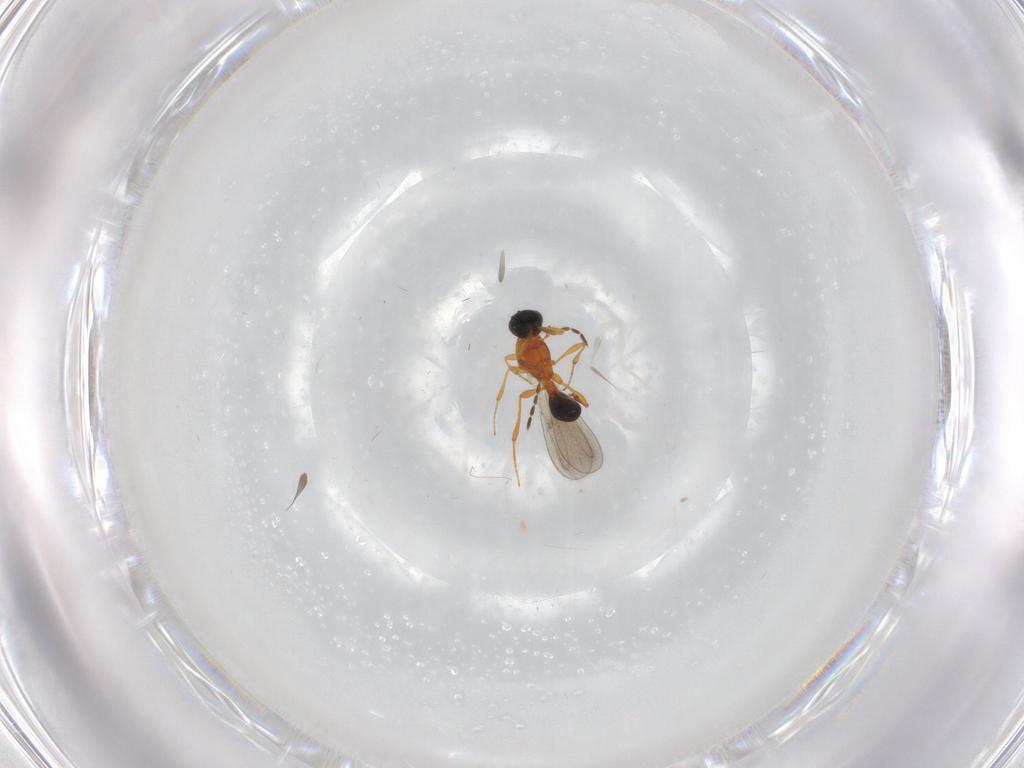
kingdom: Animalia
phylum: Arthropoda
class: Insecta
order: Hymenoptera
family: Platygastridae
